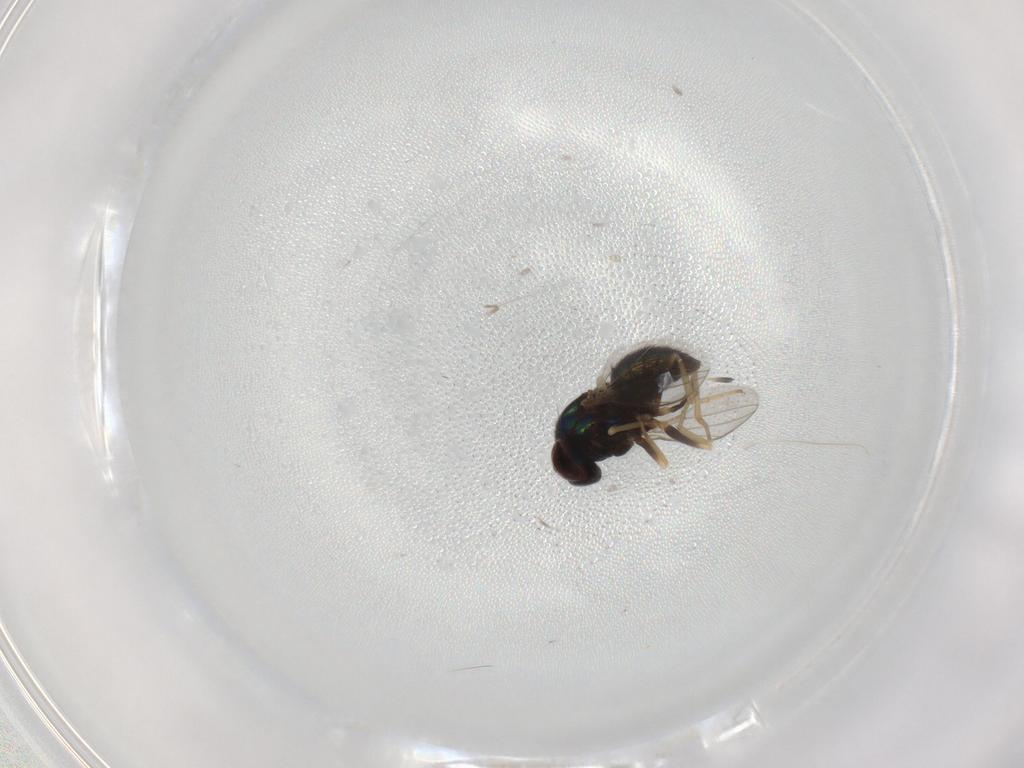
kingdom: Animalia
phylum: Arthropoda
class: Insecta
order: Diptera
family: Dolichopodidae
